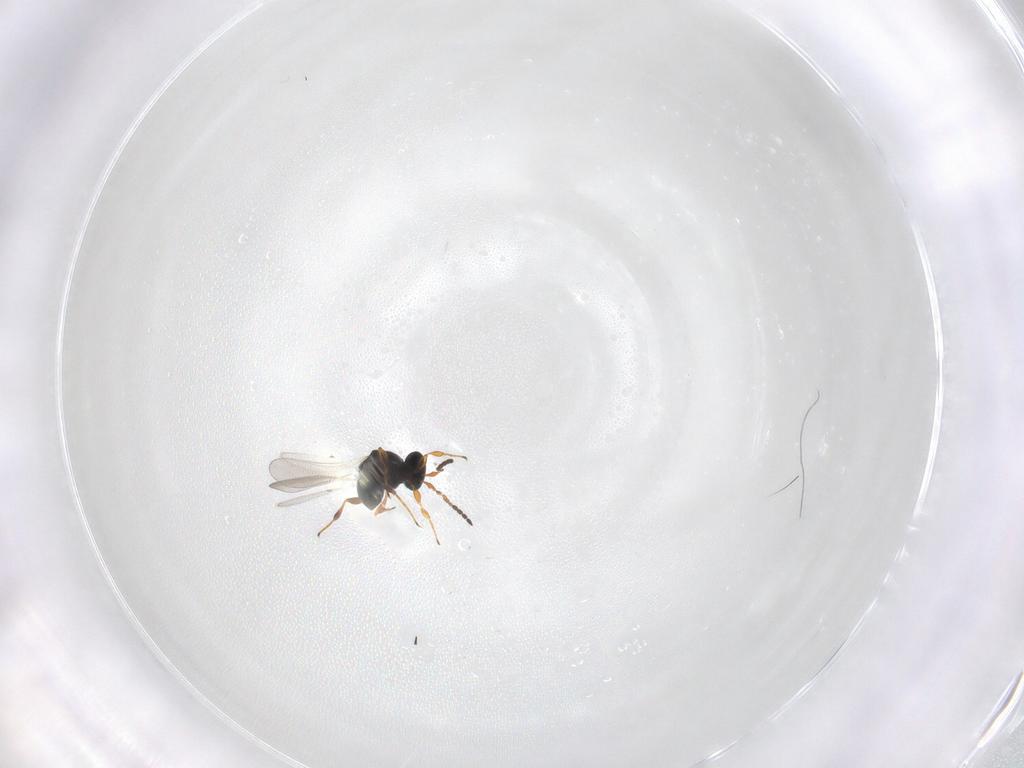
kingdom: Animalia
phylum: Arthropoda
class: Insecta
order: Hymenoptera
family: Platygastridae
